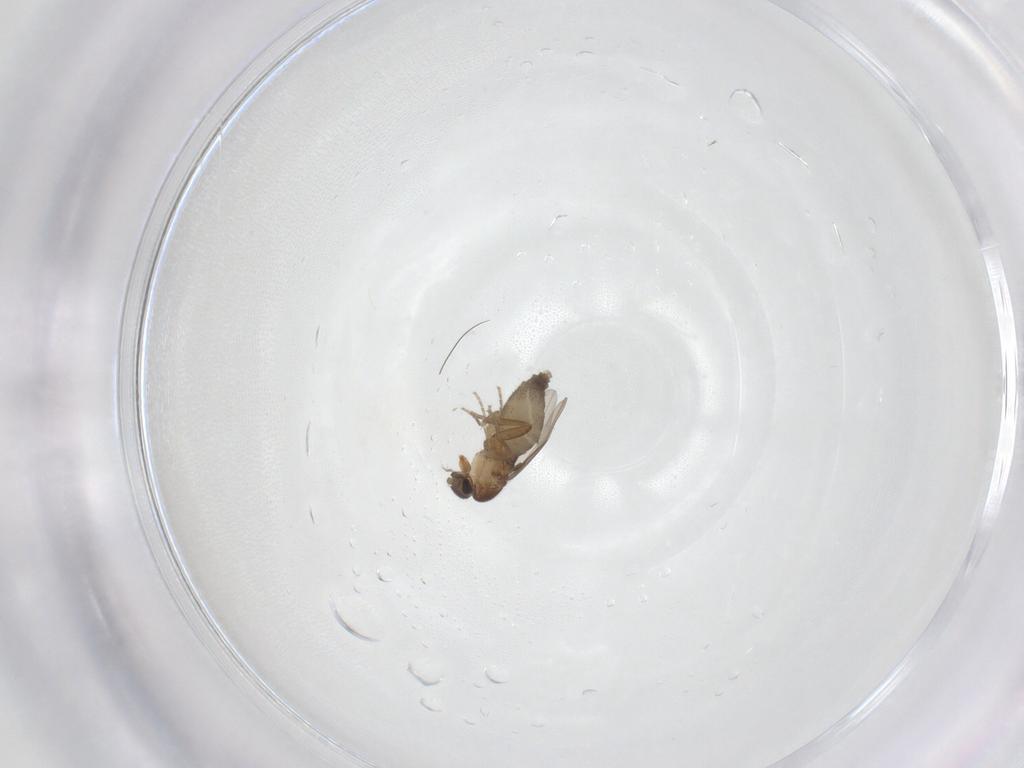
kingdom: Animalia
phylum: Arthropoda
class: Insecta
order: Diptera
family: Phoridae
